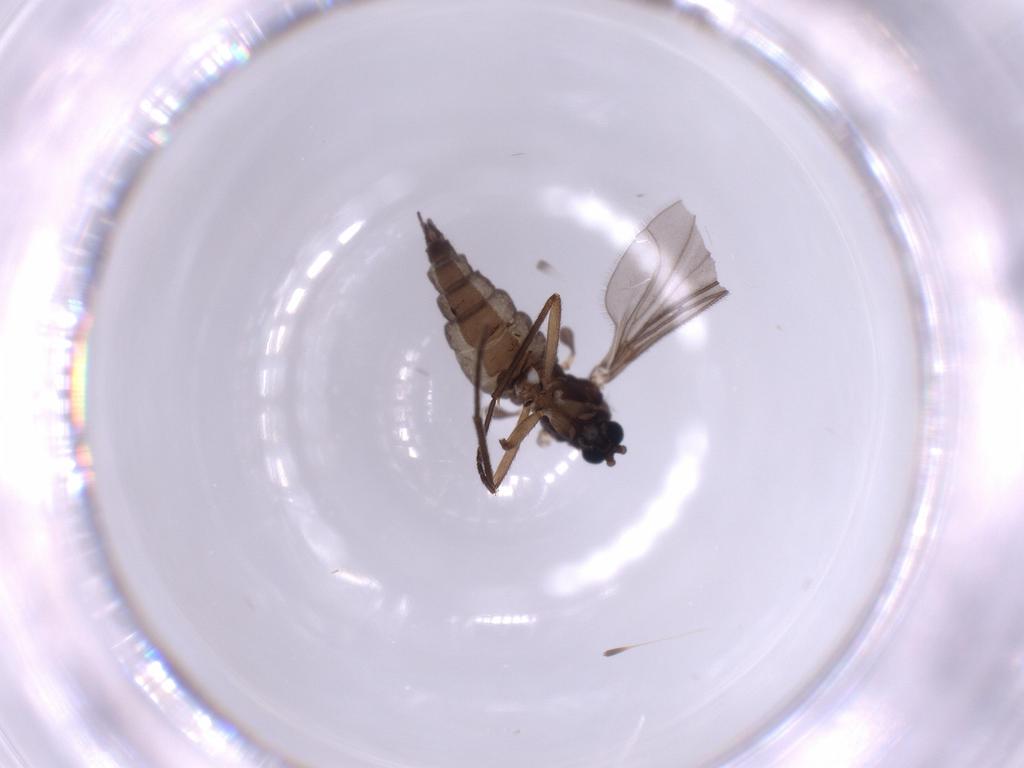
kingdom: Animalia
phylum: Arthropoda
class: Insecta
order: Diptera
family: Sciaridae
